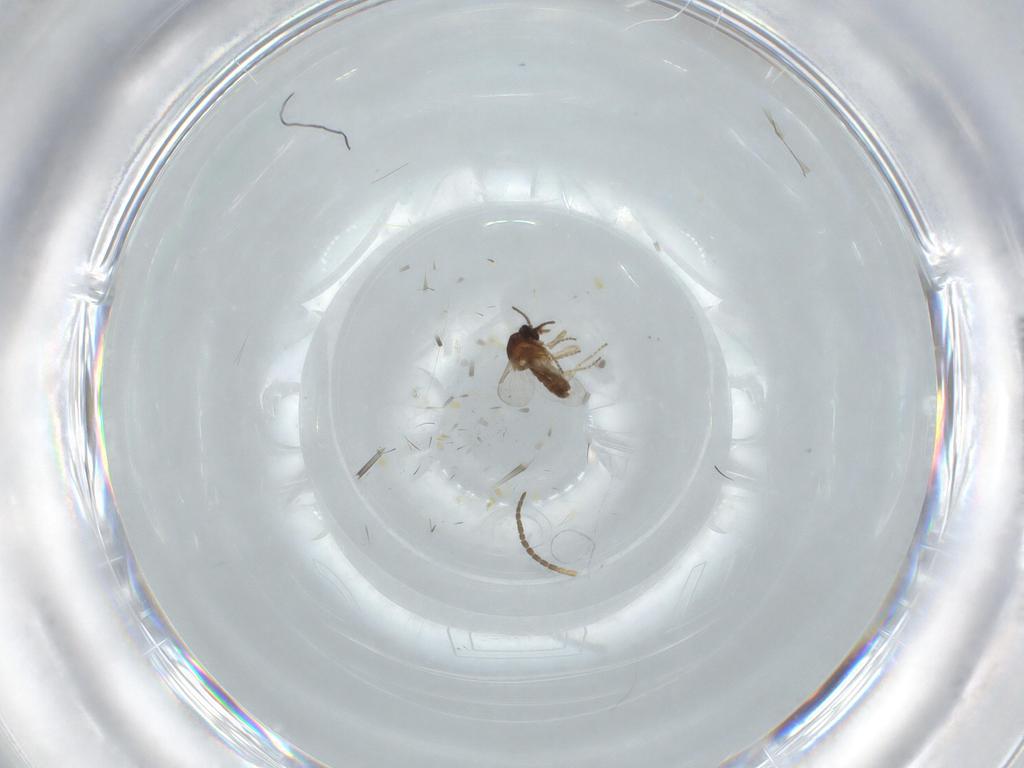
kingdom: Animalia
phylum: Arthropoda
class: Insecta
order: Diptera
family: Ceratopogonidae
